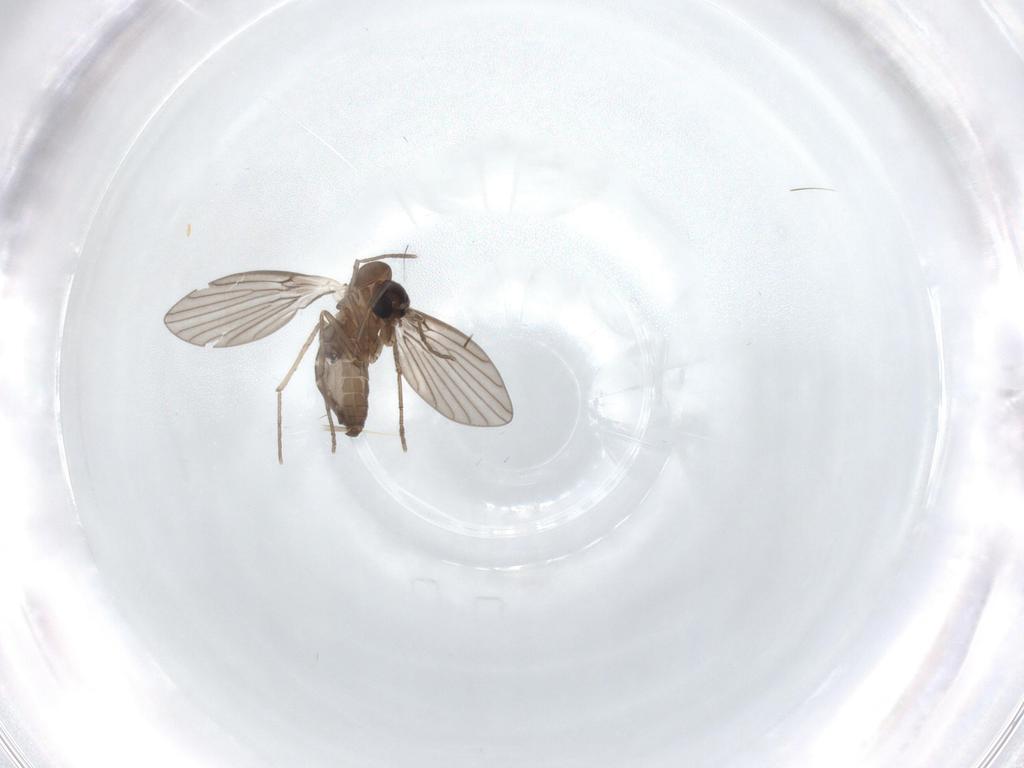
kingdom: Animalia
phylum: Arthropoda
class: Insecta
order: Diptera
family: Psychodidae
